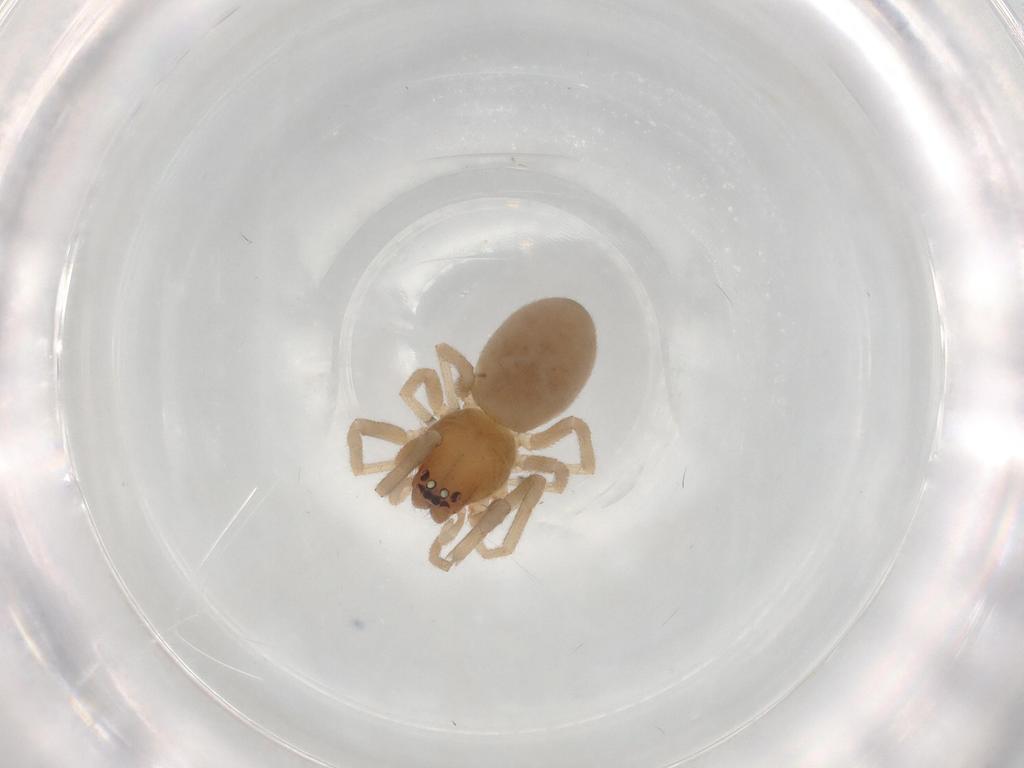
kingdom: Animalia
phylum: Arthropoda
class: Arachnida
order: Araneae
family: Trachelidae
